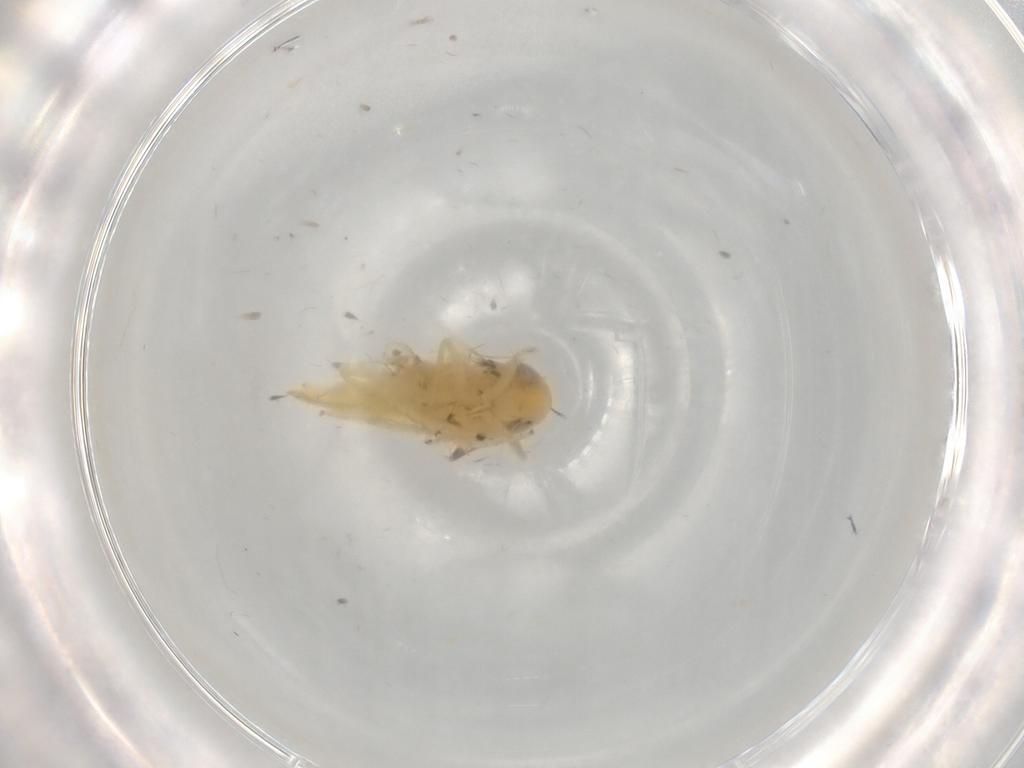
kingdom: Animalia
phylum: Arthropoda
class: Insecta
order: Hemiptera
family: Cicadellidae
